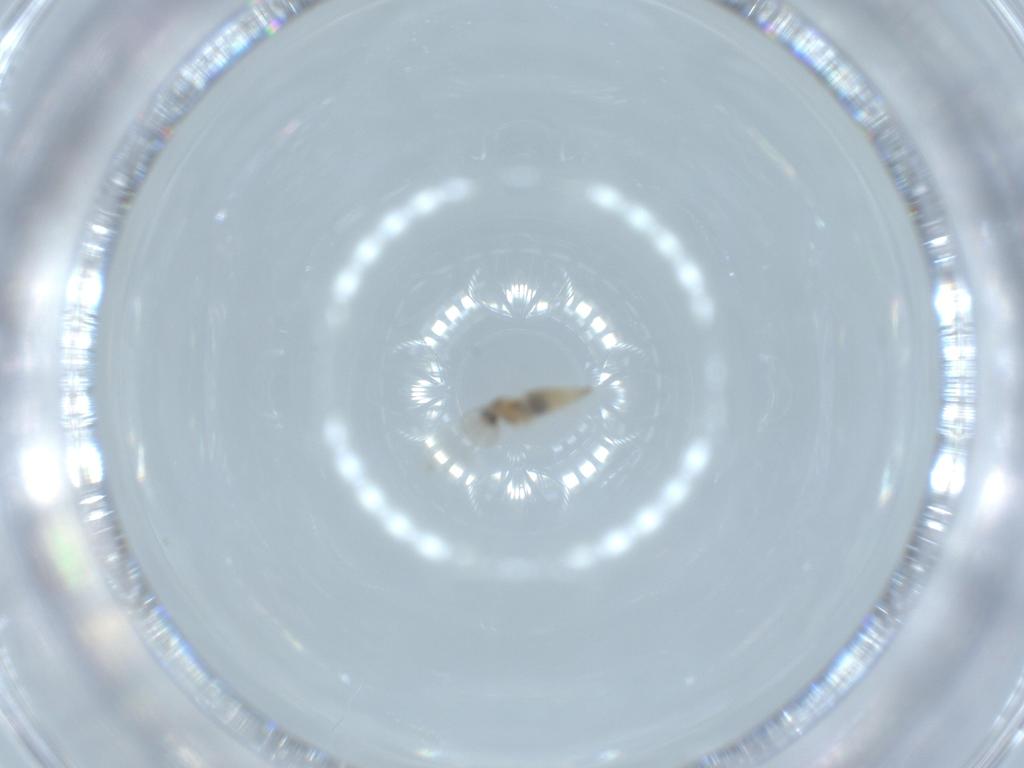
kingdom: Animalia
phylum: Arthropoda
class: Insecta
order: Diptera
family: Cecidomyiidae
